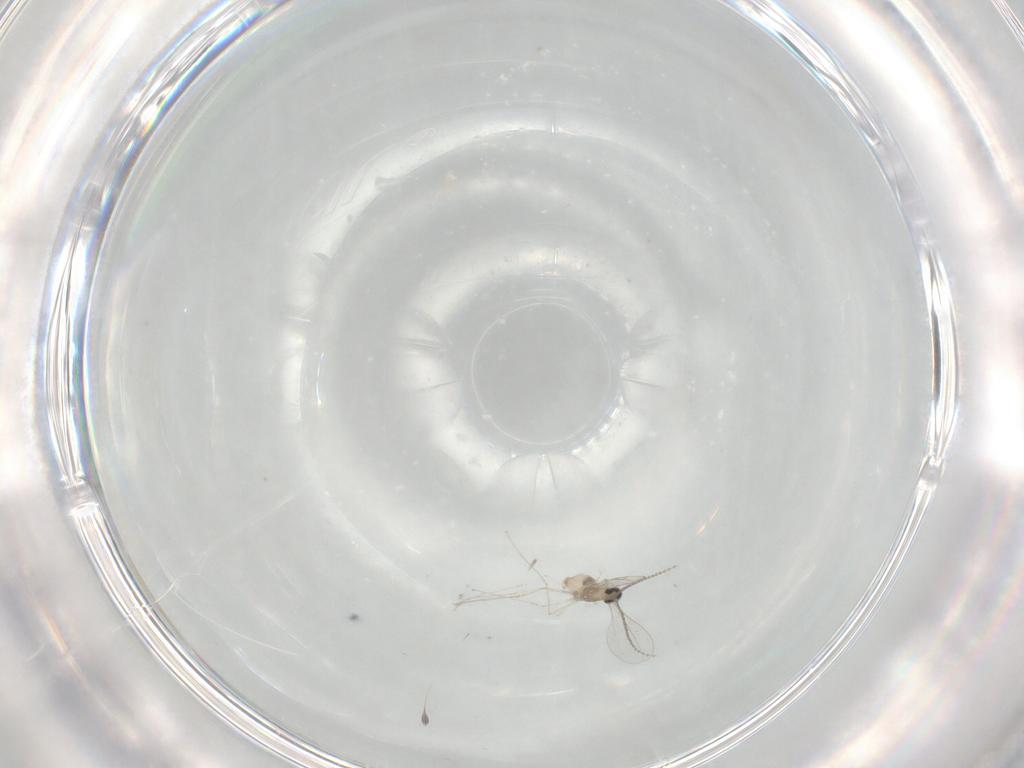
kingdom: Animalia
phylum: Arthropoda
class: Insecta
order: Diptera
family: Cecidomyiidae
